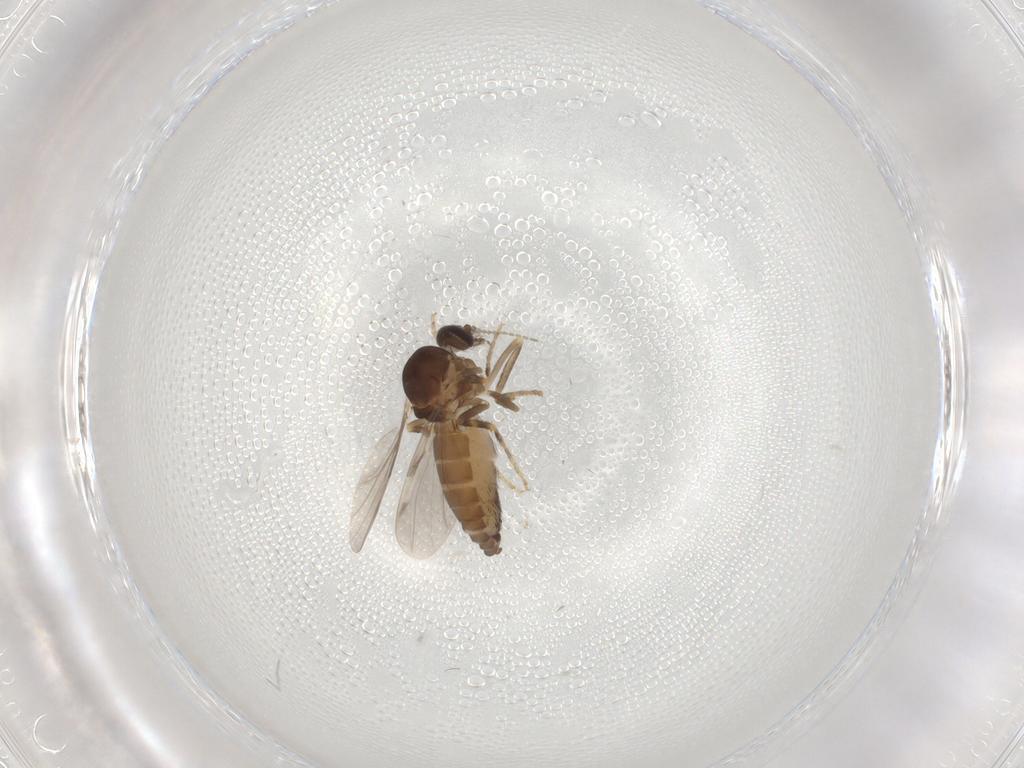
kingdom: Animalia
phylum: Arthropoda
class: Insecta
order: Diptera
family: Ceratopogonidae
